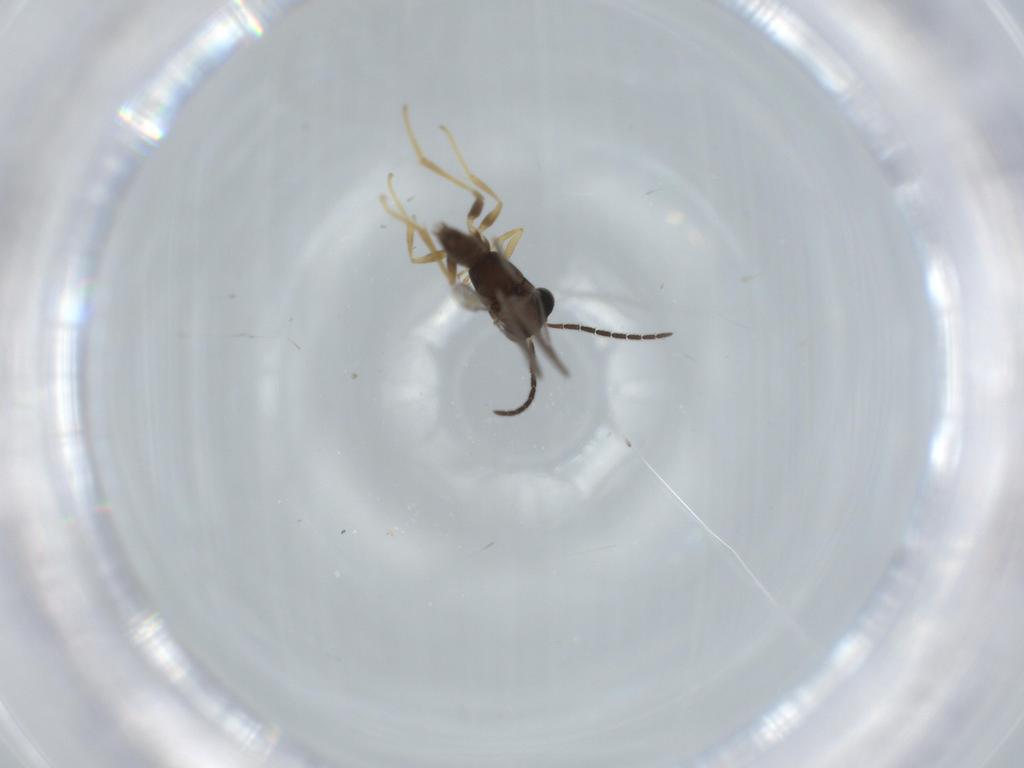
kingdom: Animalia
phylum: Arthropoda
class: Insecta
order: Hymenoptera
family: Dryinidae
